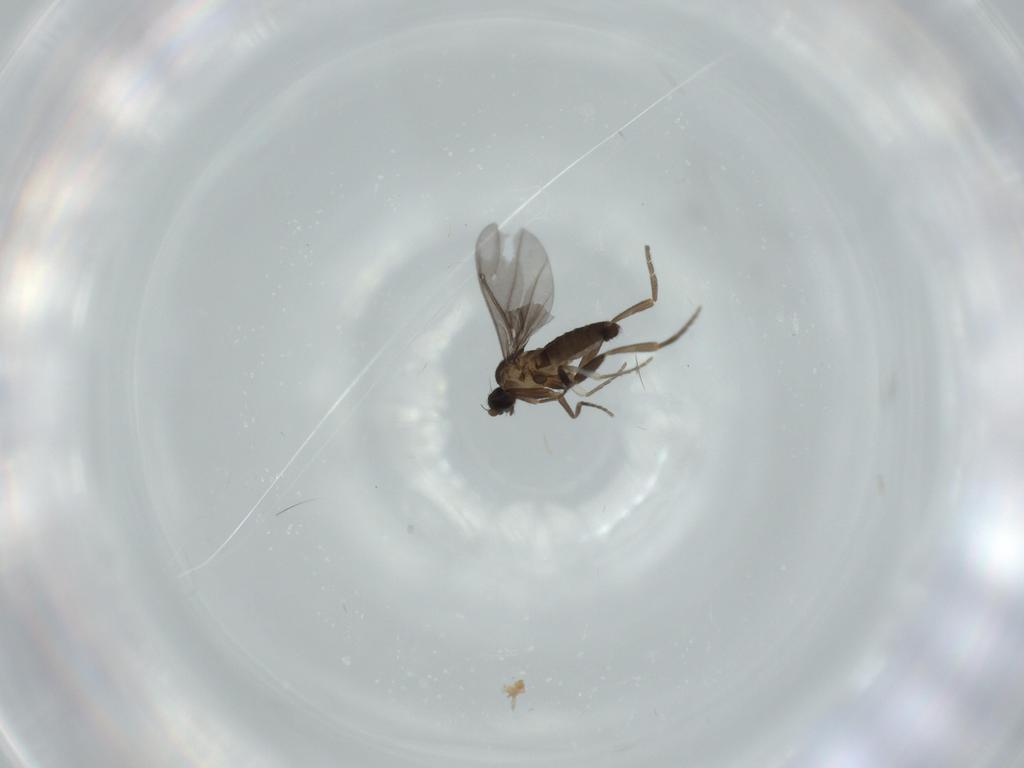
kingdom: Animalia
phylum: Arthropoda
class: Insecta
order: Diptera
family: Phoridae
